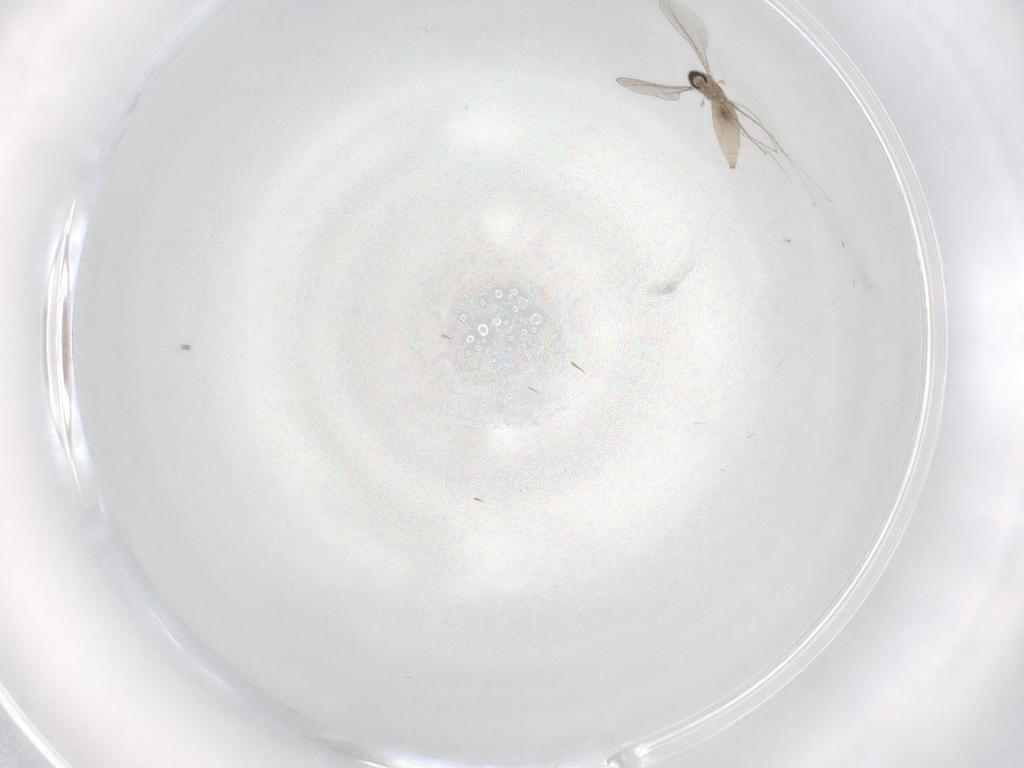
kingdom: Animalia
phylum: Arthropoda
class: Insecta
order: Diptera
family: Cecidomyiidae
